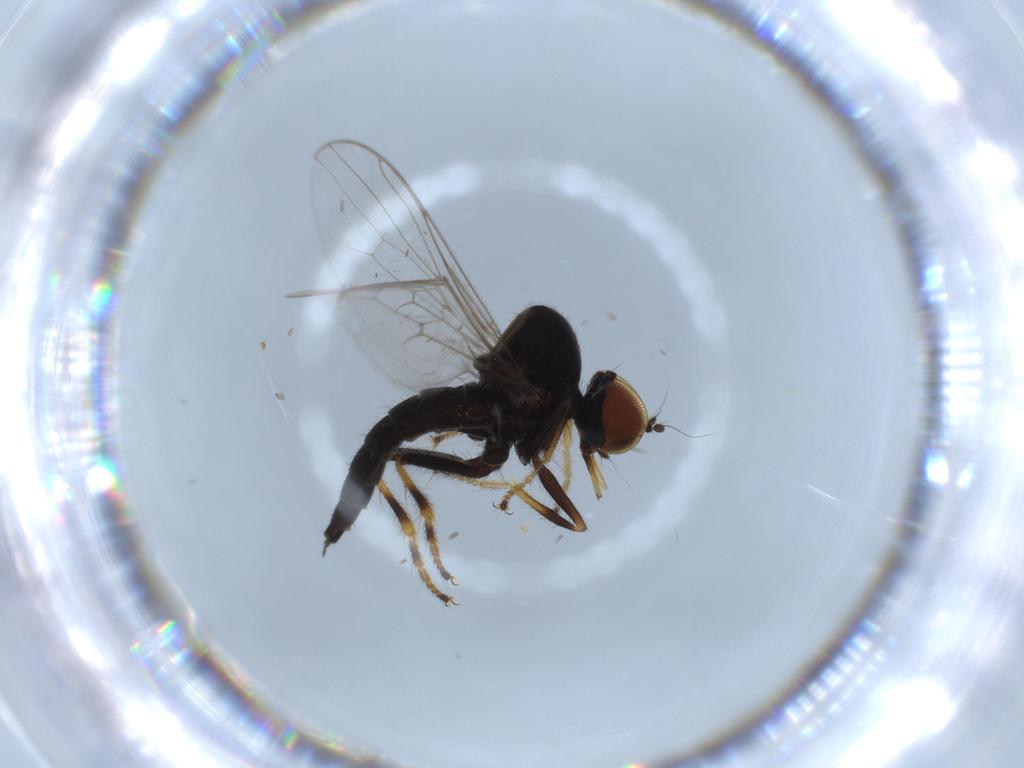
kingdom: Animalia
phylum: Arthropoda
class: Insecta
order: Diptera
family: Hybotidae
